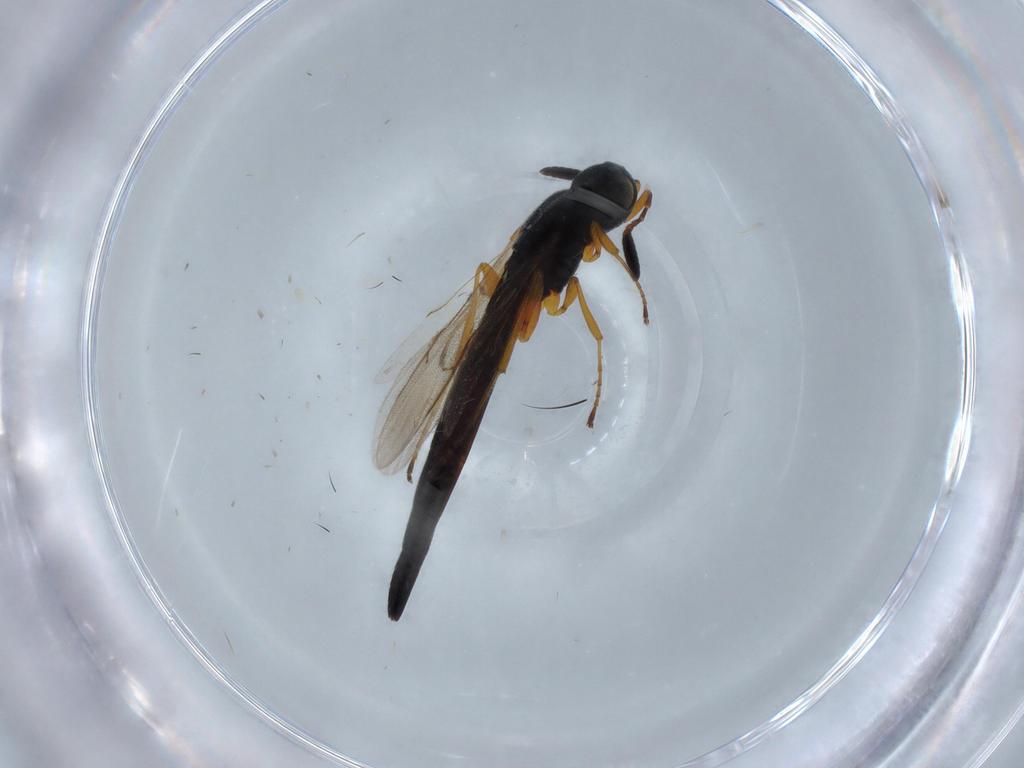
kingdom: Animalia
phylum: Arthropoda
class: Insecta
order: Hymenoptera
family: Scelionidae
